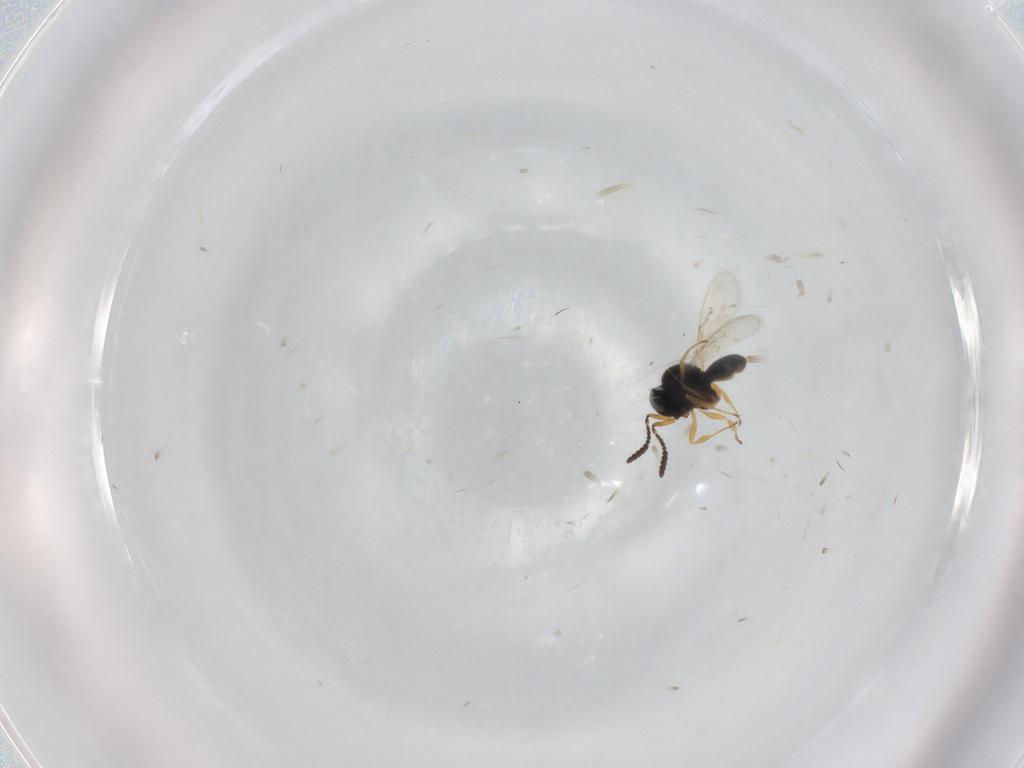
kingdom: Animalia
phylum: Arthropoda
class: Insecta
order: Hymenoptera
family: Scelionidae
